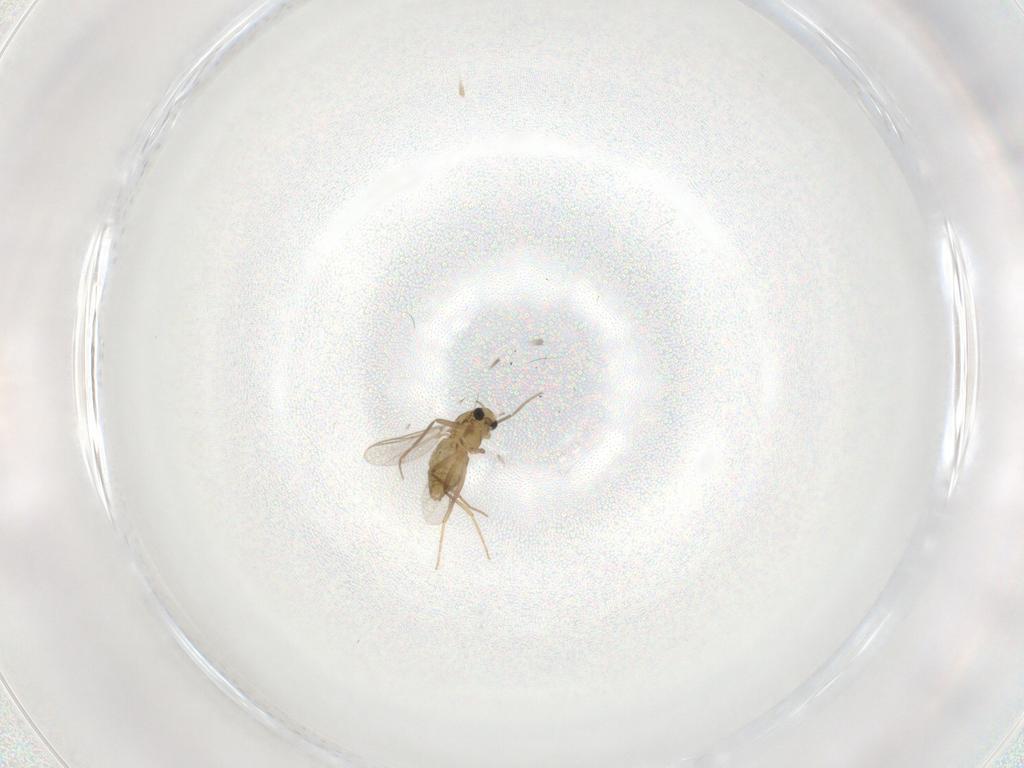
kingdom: Animalia
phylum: Arthropoda
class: Insecta
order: Diptera
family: Chironomidae
